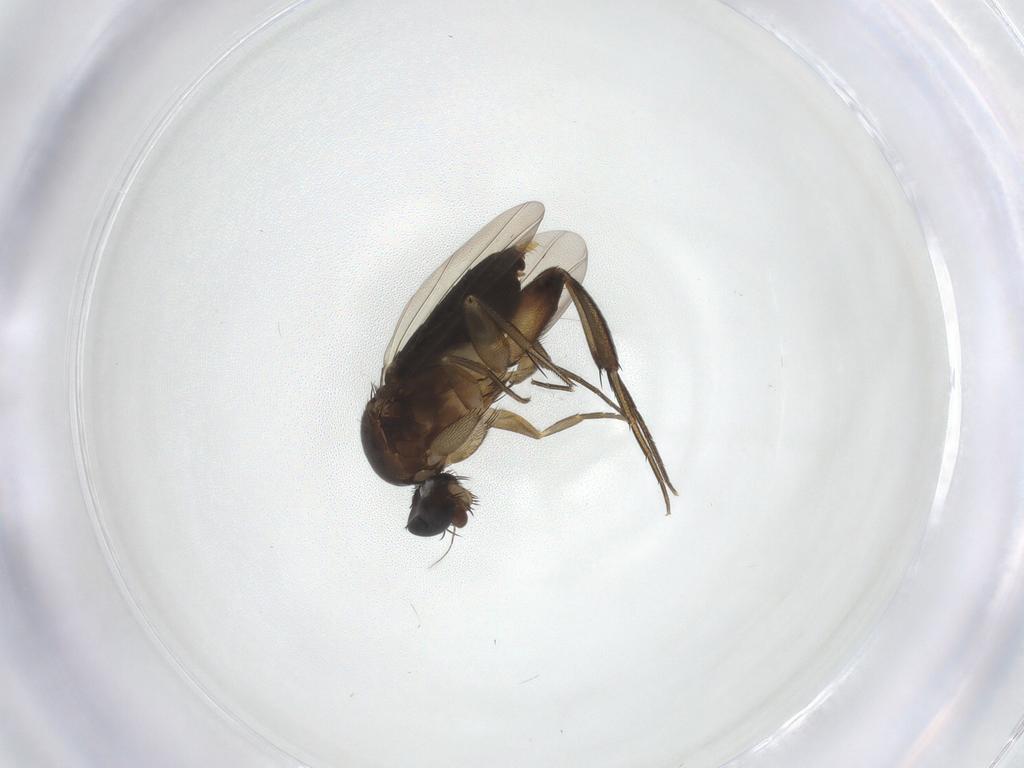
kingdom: Animalia
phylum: Arthropoda
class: Insecta
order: Diptera
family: Phoridae
